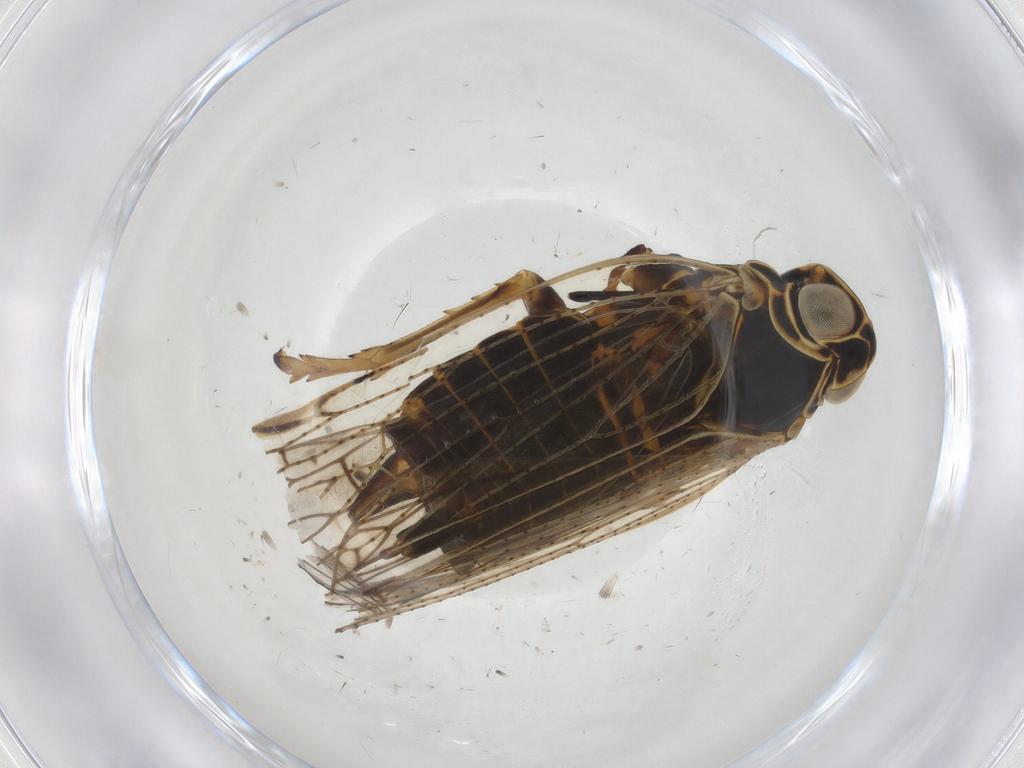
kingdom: Animalia
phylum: Arthropoda
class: Insecta
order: Hemiptera
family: Cixiidae
